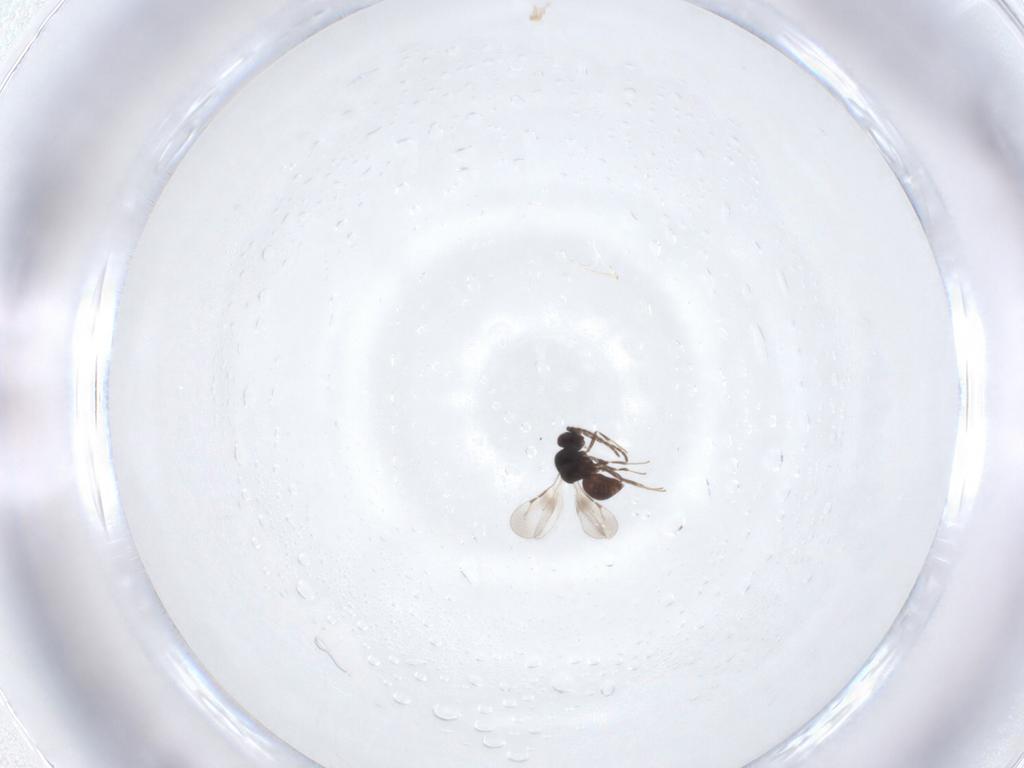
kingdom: Animalia
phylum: Arthropoda
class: Insecta
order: Hymenoptera
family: Ceraphronidae
